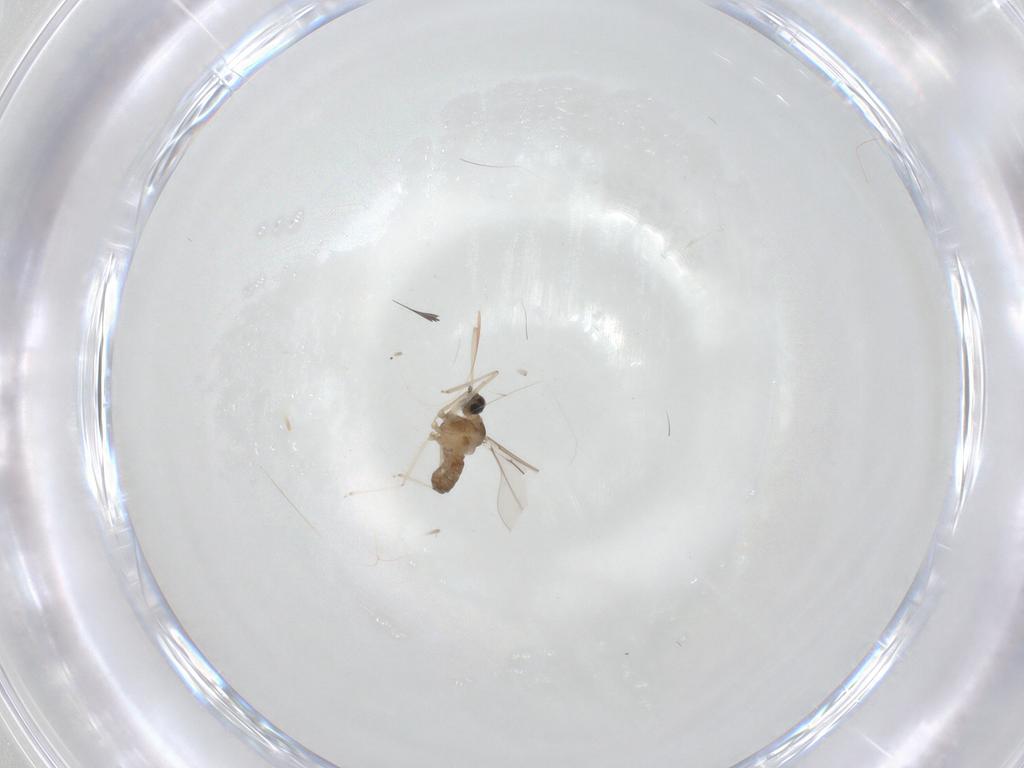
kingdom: Animalia
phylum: Arthropoda
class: Insecta
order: Diptera
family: Cecidomyiidae
